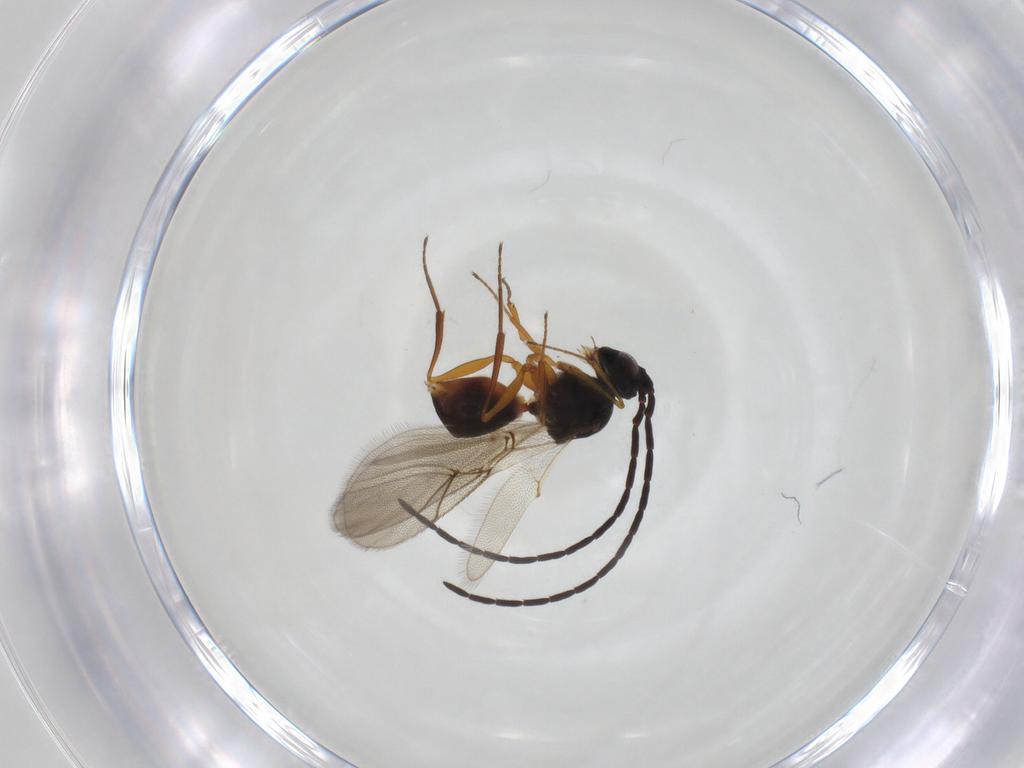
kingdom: Animalia
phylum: Arthropoda
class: Insecta
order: Hymenoptera
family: Figitidae
